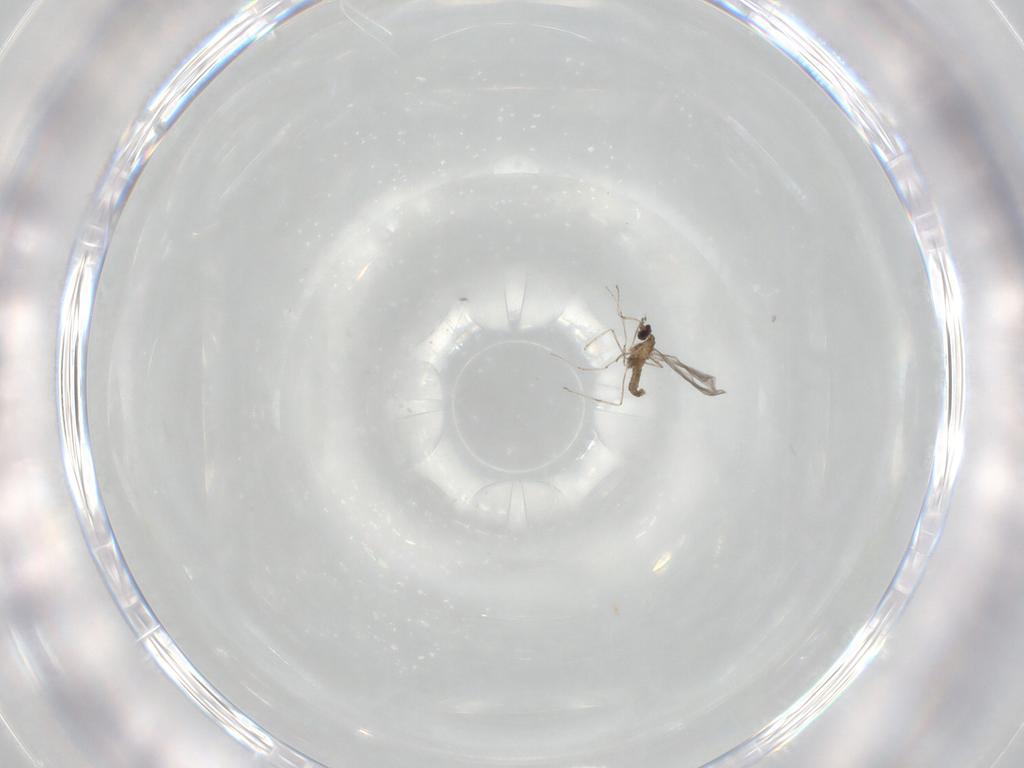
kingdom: Animalia
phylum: Arthropoda
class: Insecta
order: Diptera
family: Cecidomyiidae
